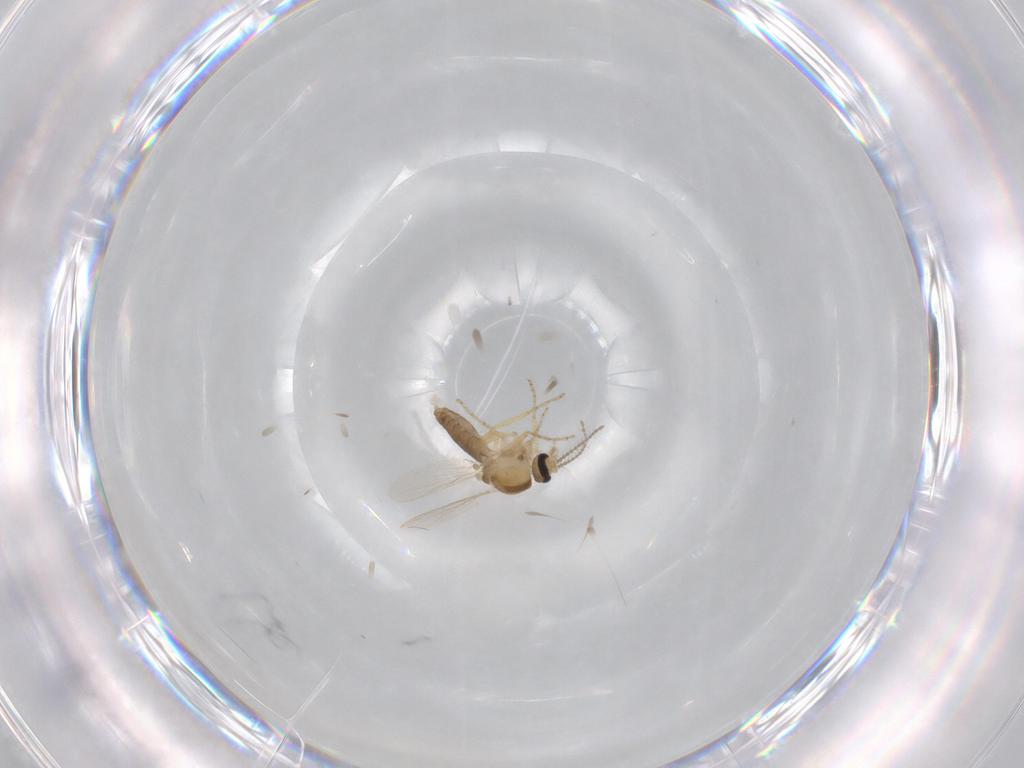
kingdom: Animalia
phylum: Arthropoda
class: Insecta
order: Diptera
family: Ceratopogonidae
